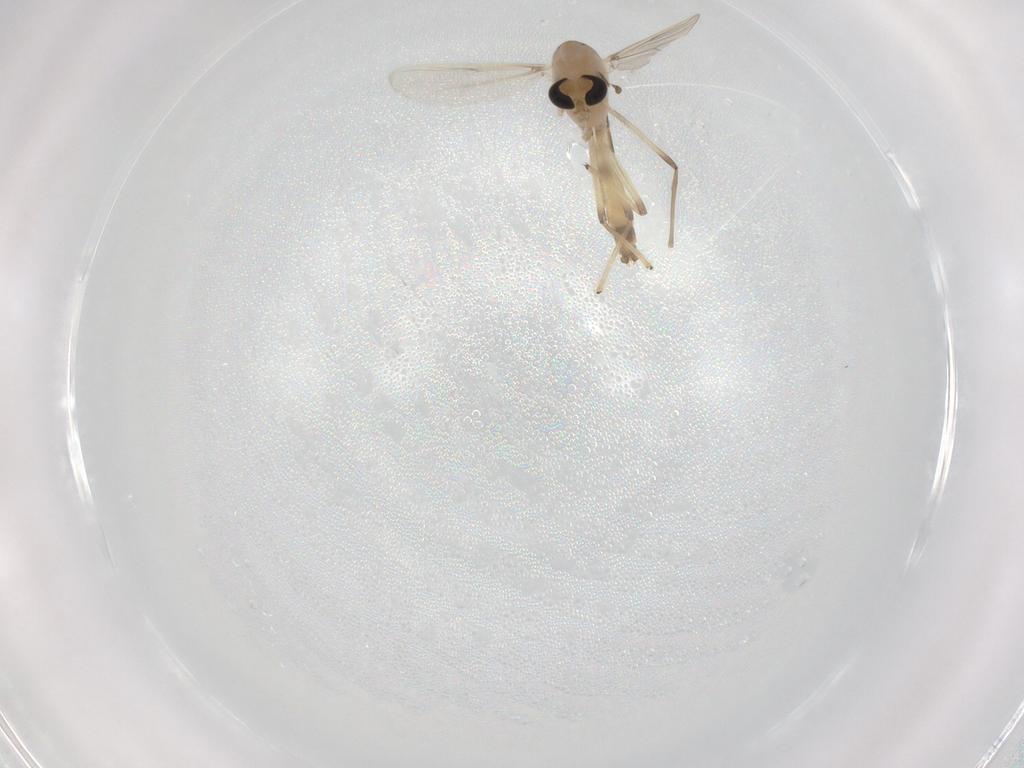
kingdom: Animalia
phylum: Arthropoda
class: Insecta
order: Diptera
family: Chironomidae
